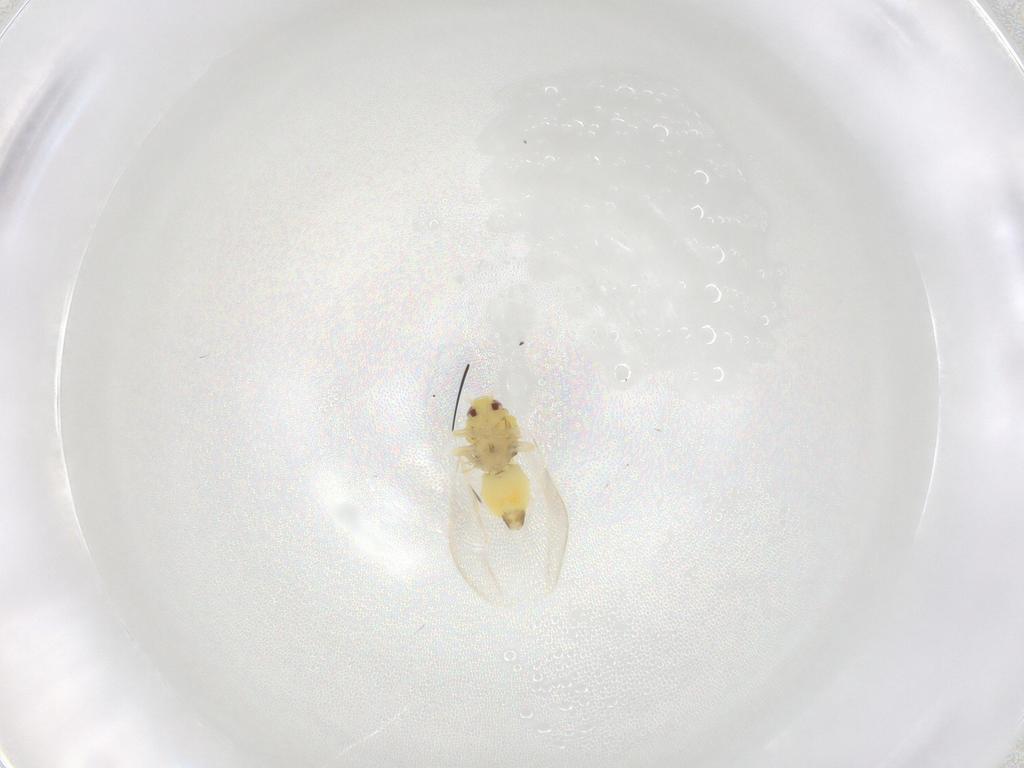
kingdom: Animalia
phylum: Arthropoda
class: Insecta
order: Hemiptera
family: Aleyrodidae
